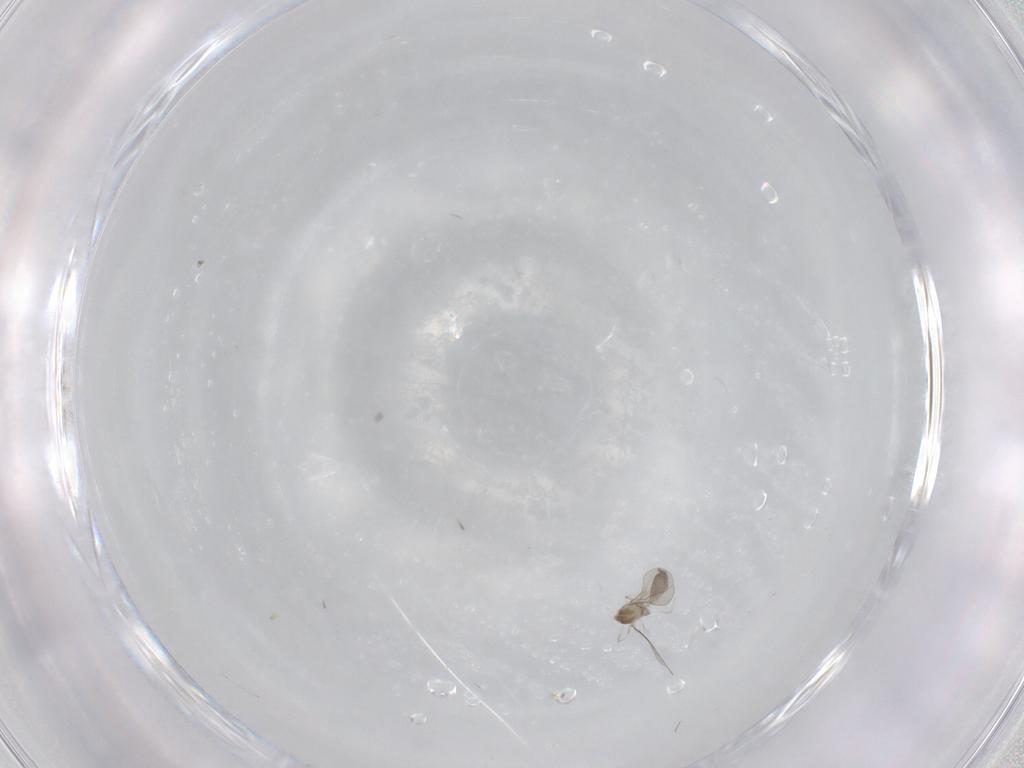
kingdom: Animalia
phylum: Arthropoda
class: Insecta
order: Diptera
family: Cecidomyiidae
